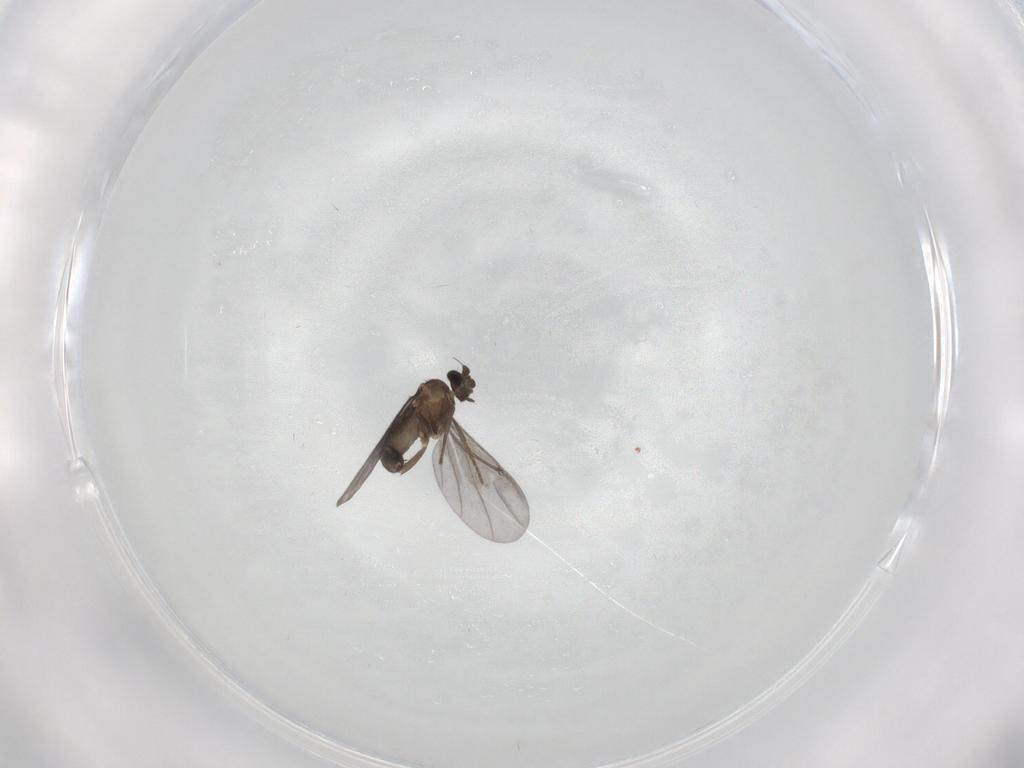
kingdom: Animalia
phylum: Arthropoda
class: Insecta
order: Diptera
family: Phoridae
